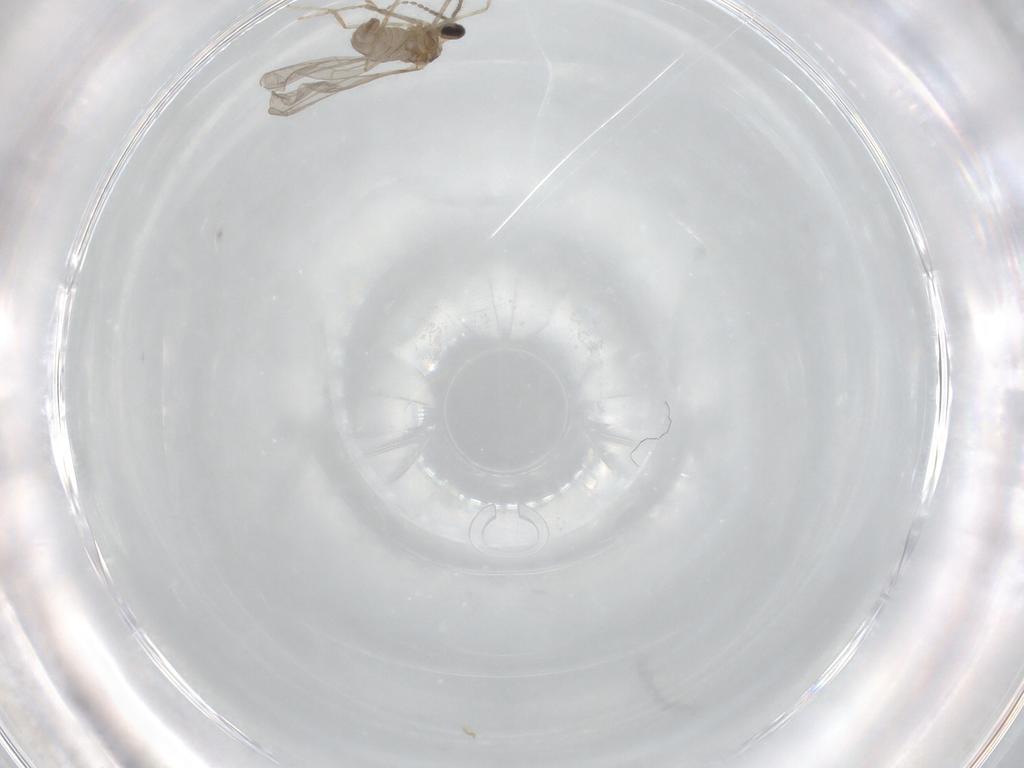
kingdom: Animalia
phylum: Arthropoda
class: Insecta
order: Diptera
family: Cecidomyiidae
